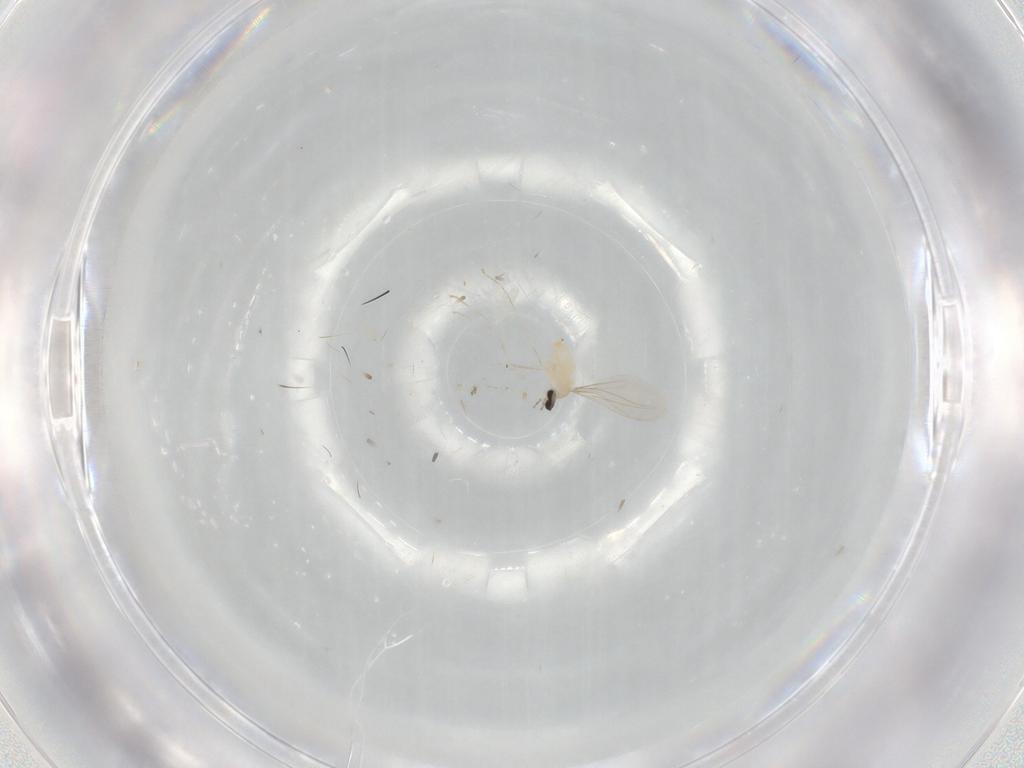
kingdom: Animalia
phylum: Arthropoda
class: Insecta
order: Diptera
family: Cecidomyiidae
